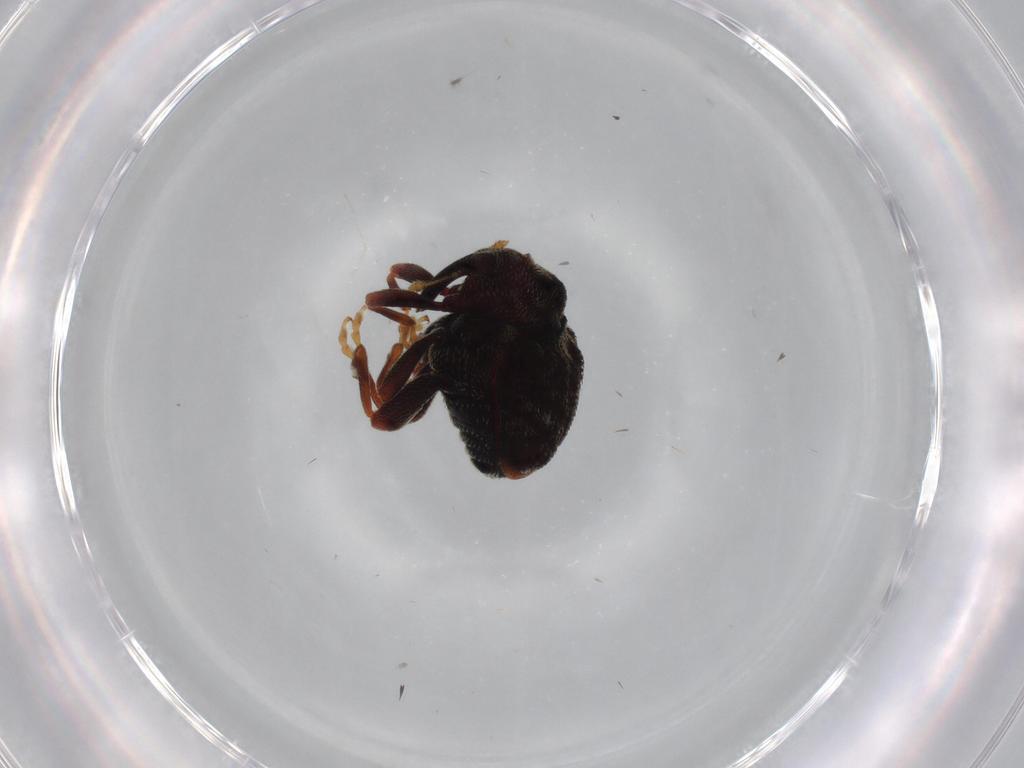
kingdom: Animalia
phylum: Arthropoda
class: Insecta
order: Coleoptera
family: Curculionidae
